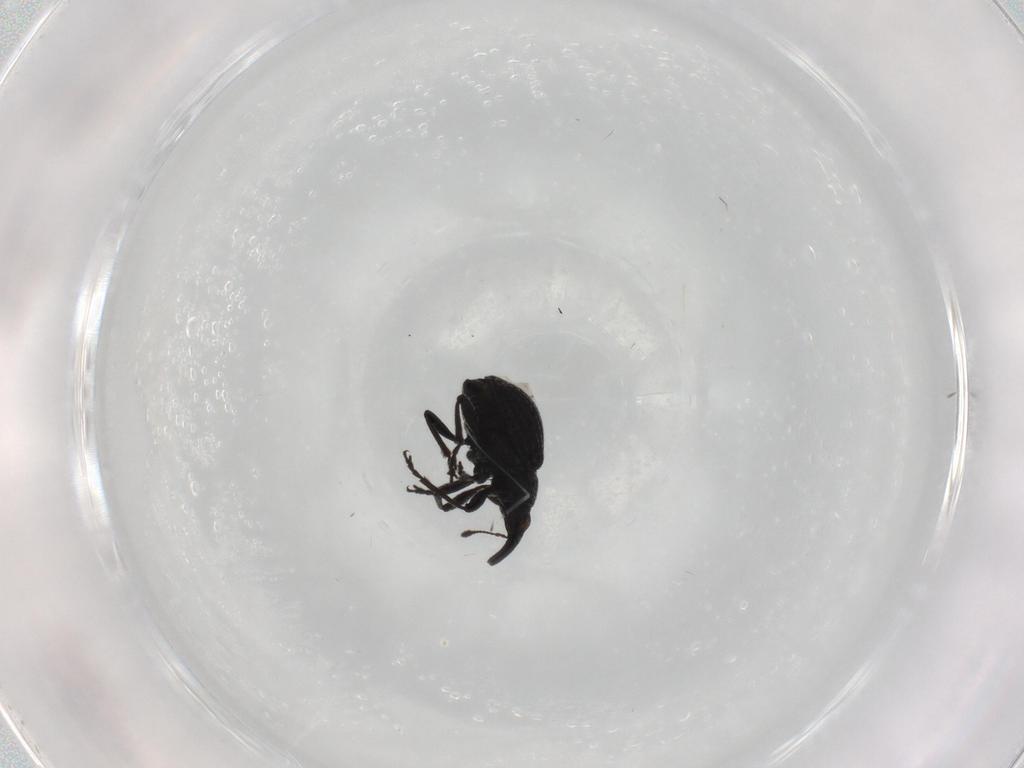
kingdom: Animalia
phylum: Arthropoda
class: Insecta
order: Coleoptera
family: Brentidae
